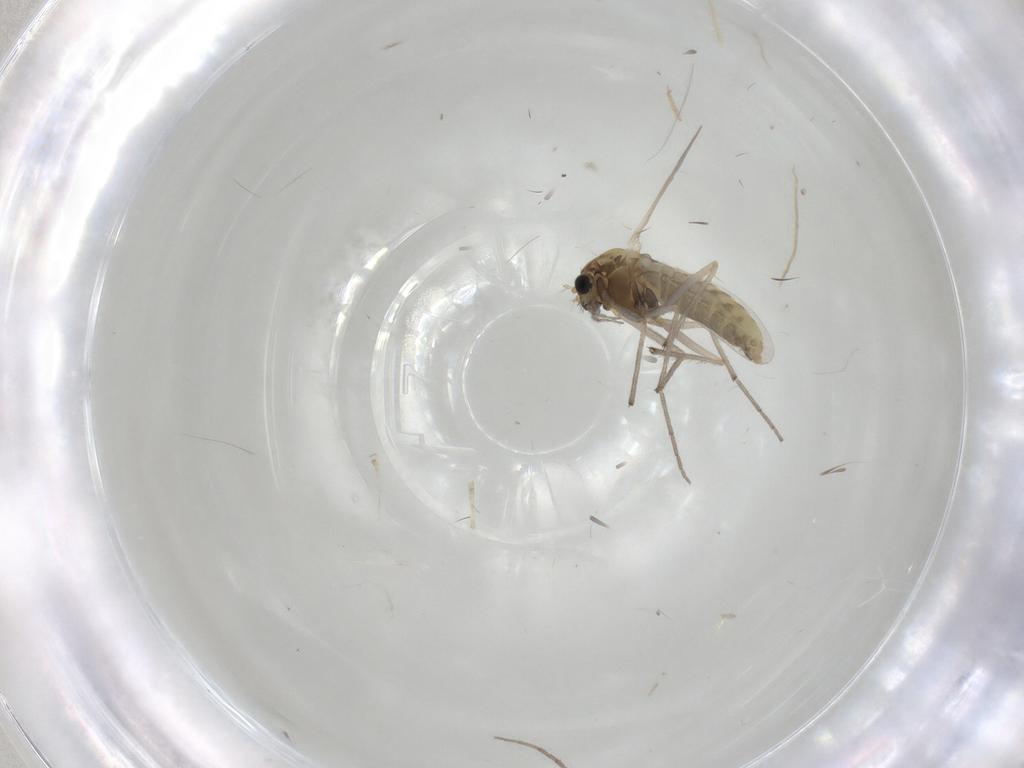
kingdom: Animalia
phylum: Arthropoda
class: Insecta
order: Diptera
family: Chironomidae
